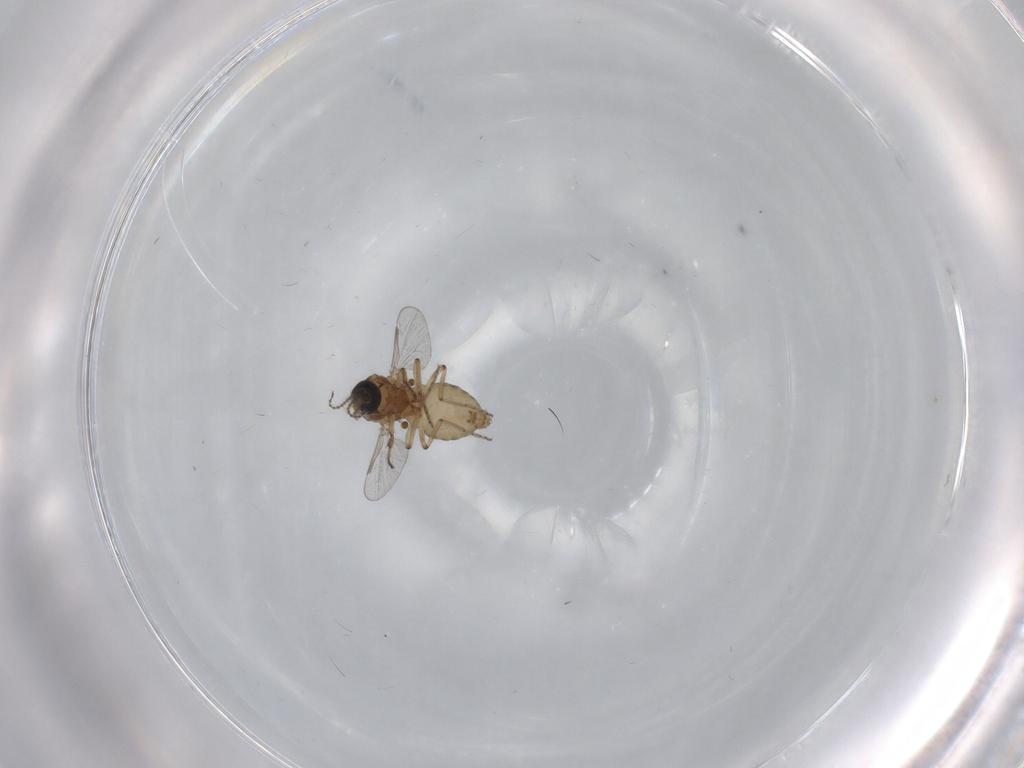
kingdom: Animalia
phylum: Arthropoda
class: Insecta
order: Diptera
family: Ceratopogonidae
